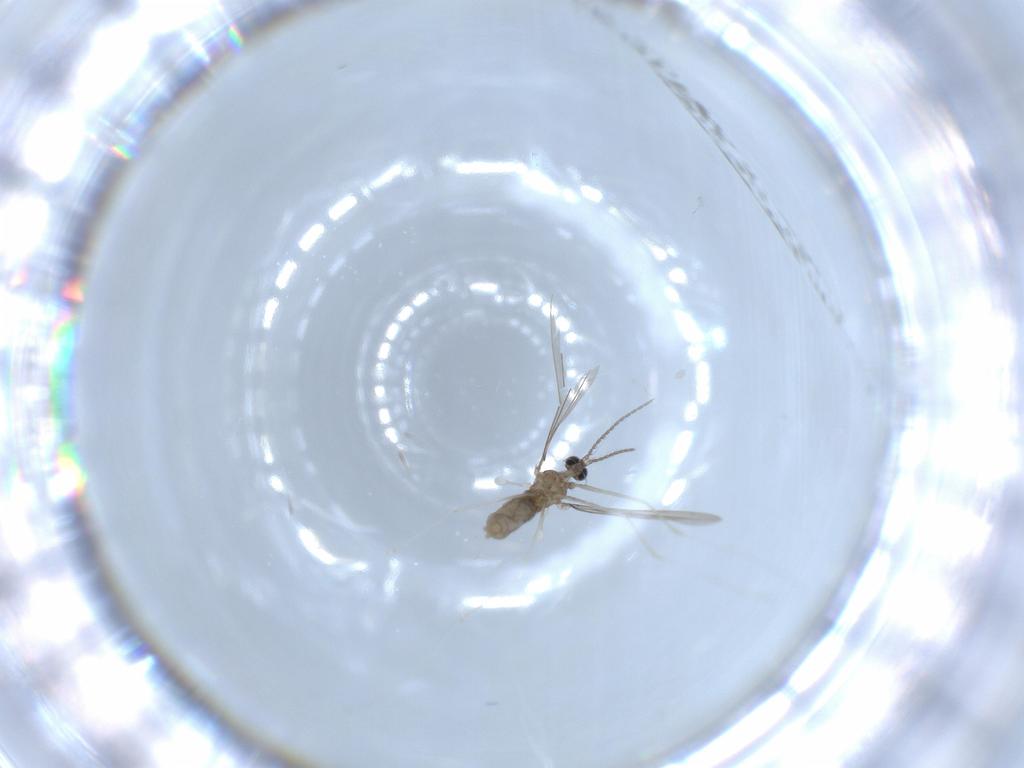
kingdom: Animalia
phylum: Arthropoda
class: Insecta
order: Diptera
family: Cecidomyiidae
